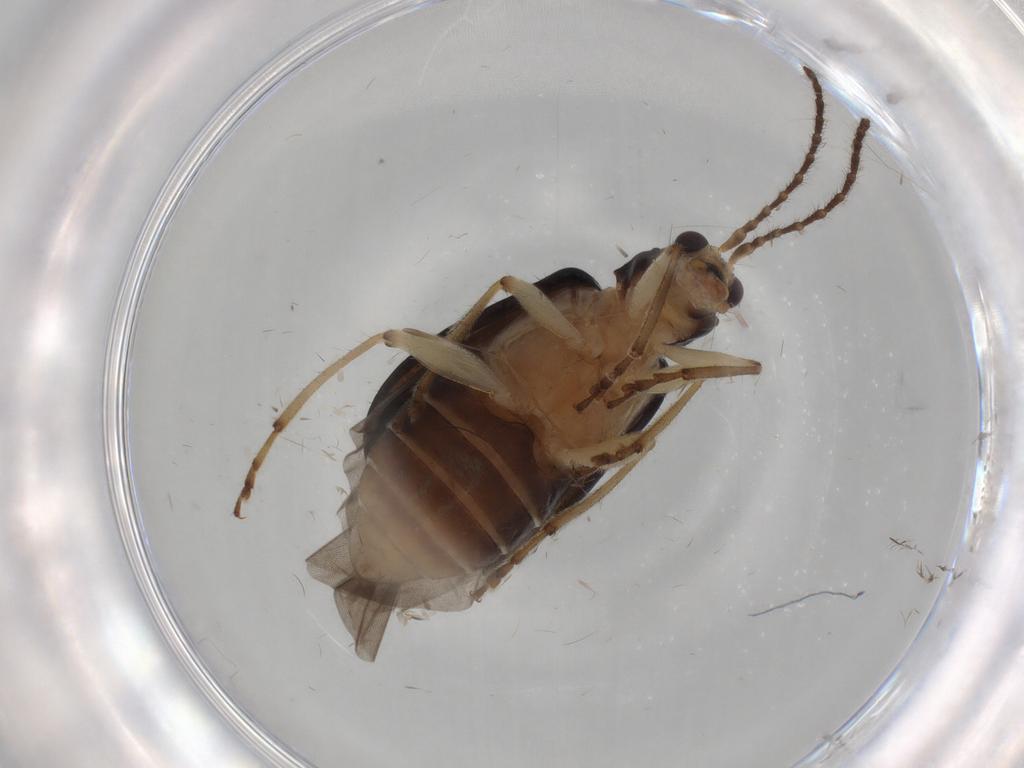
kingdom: Animalia
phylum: Arthropoda
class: Insecta
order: Coleoptera
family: Chrysomelidae
